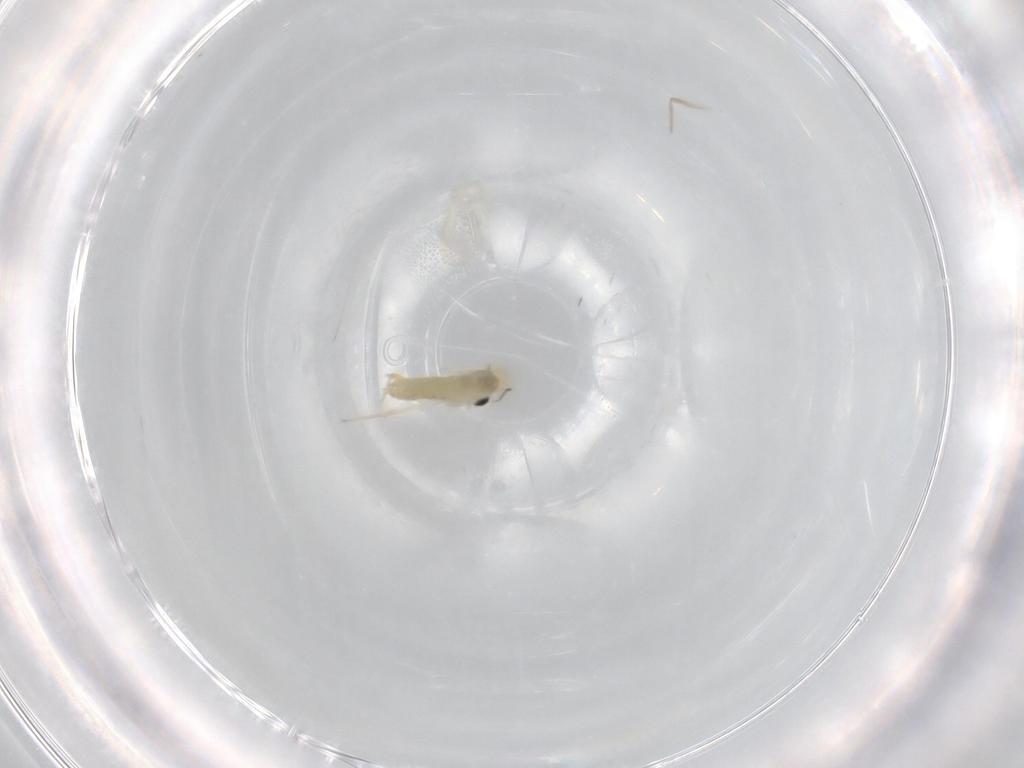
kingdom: Animalia
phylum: Arthropoda
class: Insecta
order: Diptera
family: Chironomidae
